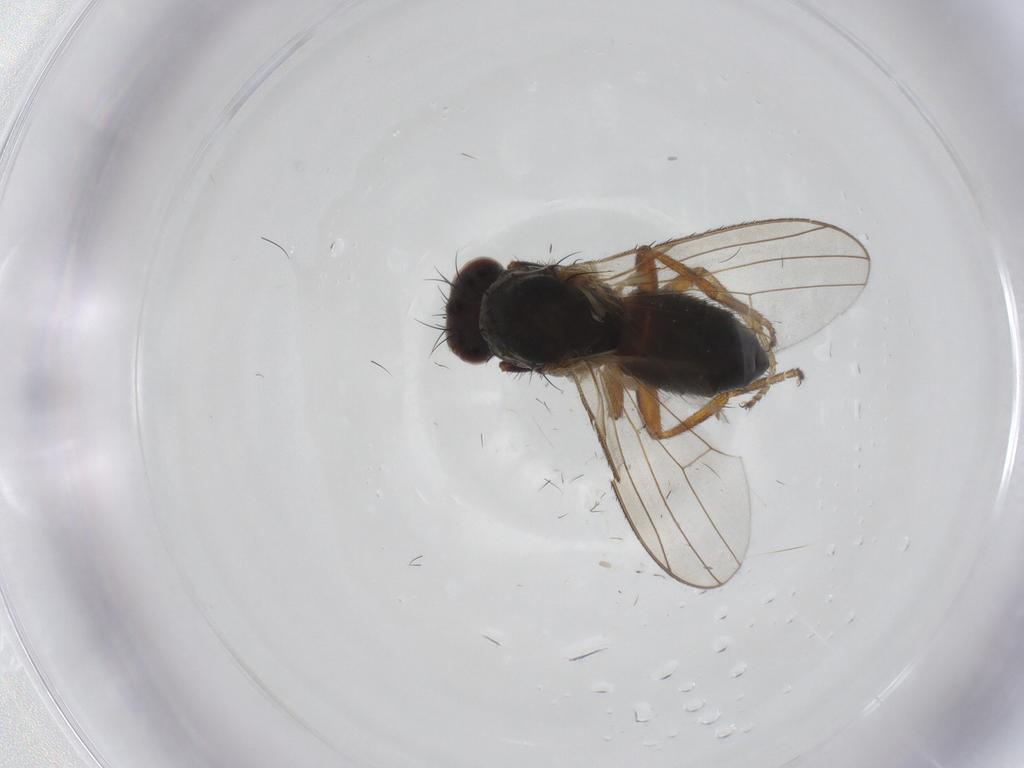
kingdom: Animalia
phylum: Arthropoda
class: Insecta
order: Diptera
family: Heleomyzidae
